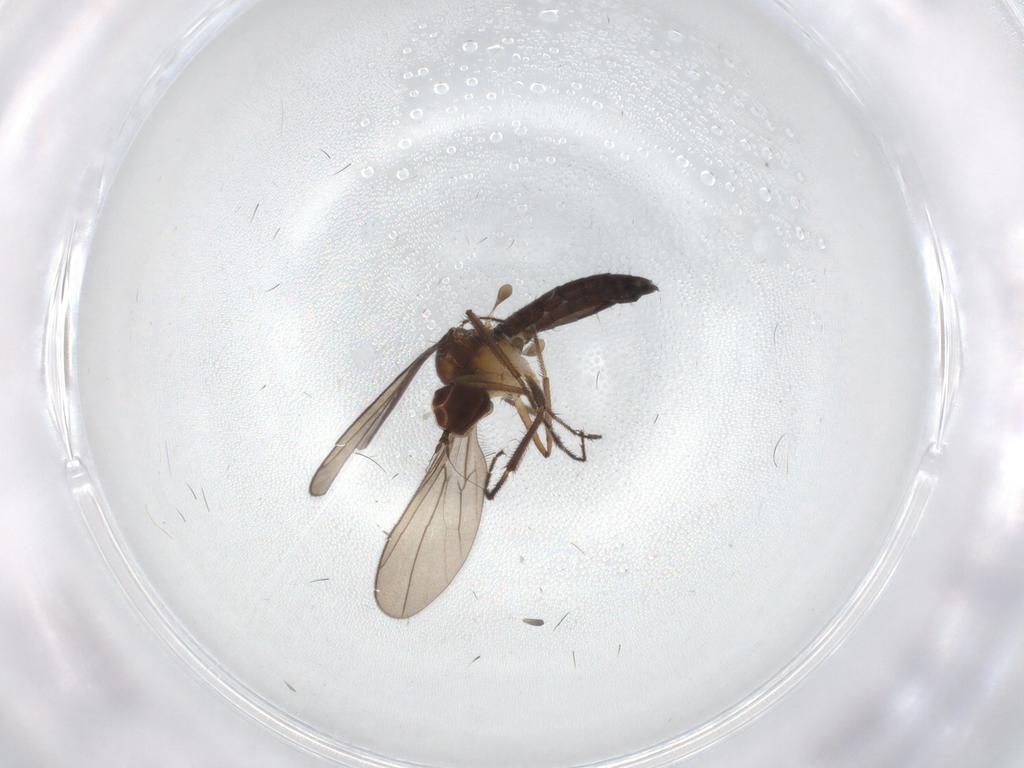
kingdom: Animalia
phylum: Arthropoda
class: Insecta
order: Diptera
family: Hybotidae
